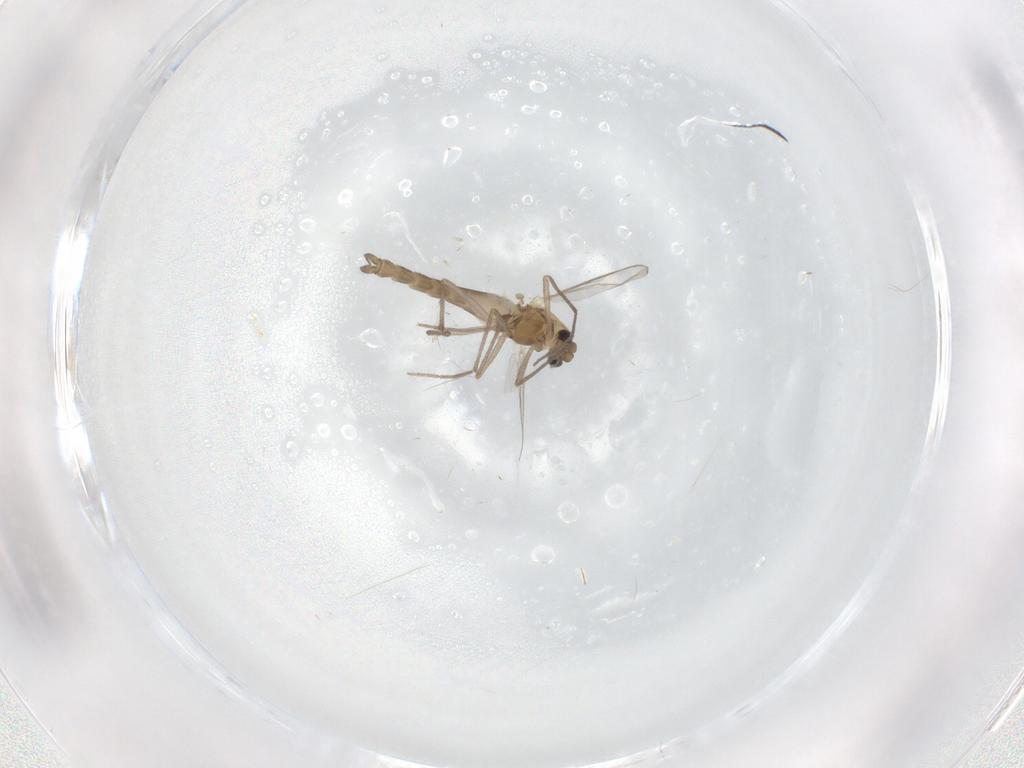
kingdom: Animalia
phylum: Arthropoda
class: Insecta
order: Diptera
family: Chironomidae
